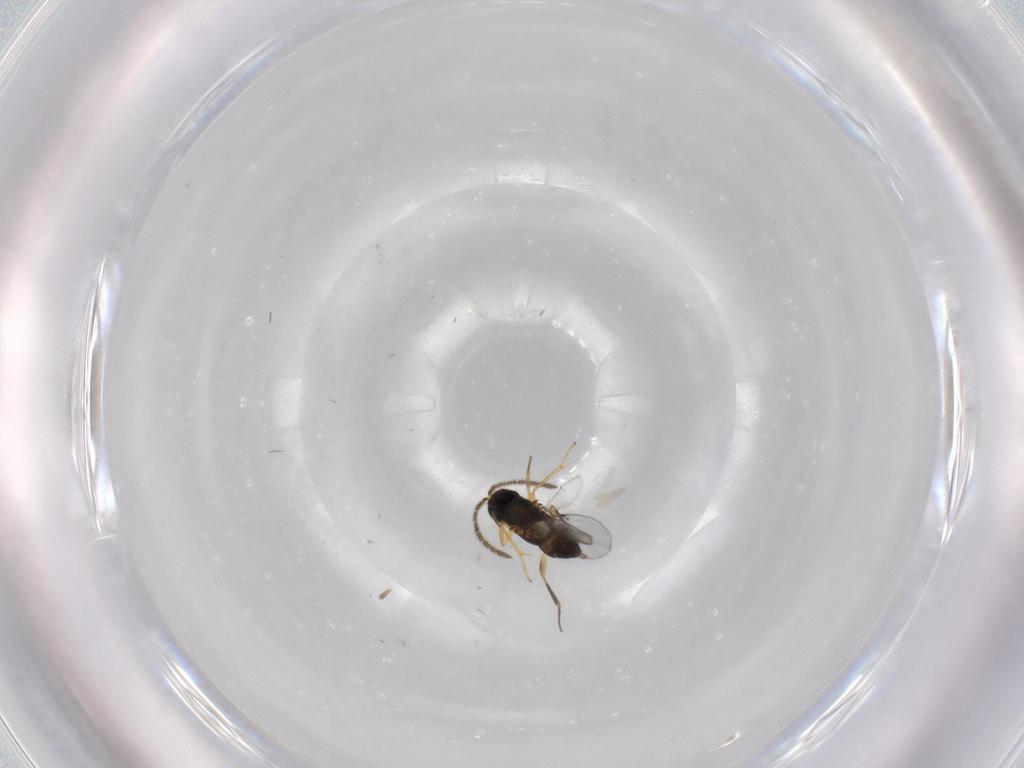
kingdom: Animalia
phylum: Arthropoda
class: Insecta
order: Hymenoptera
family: Encyrtidae
